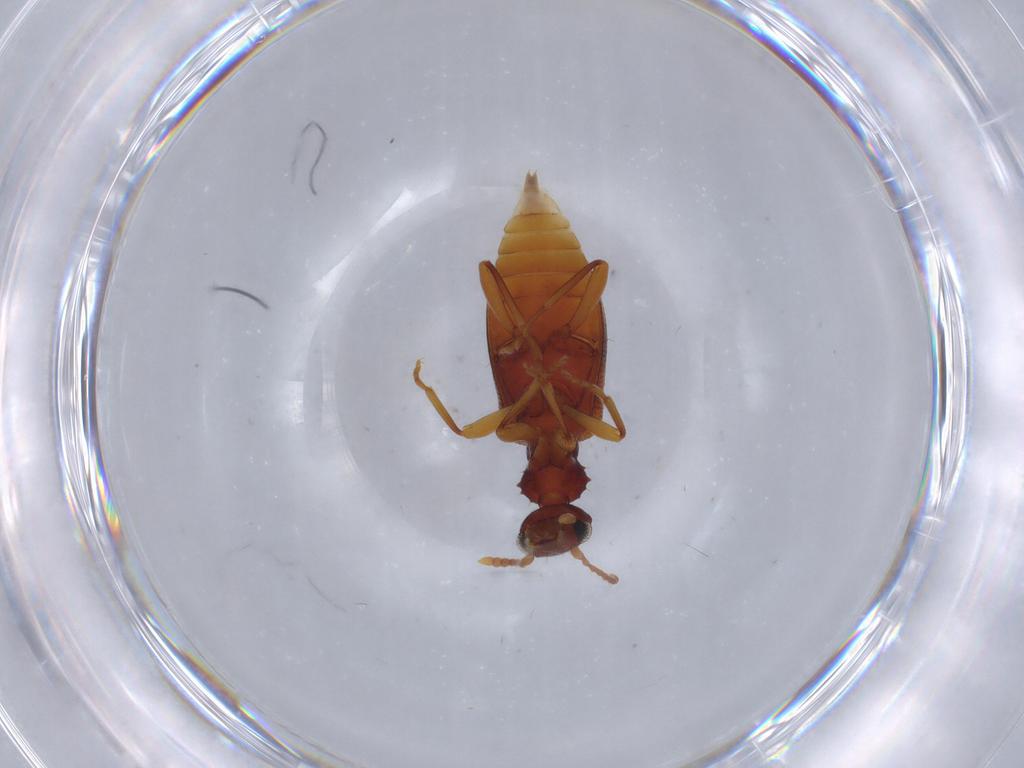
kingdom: Animalia
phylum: Arthropoda
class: Insecta
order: Coleoptera
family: Anthicidae
